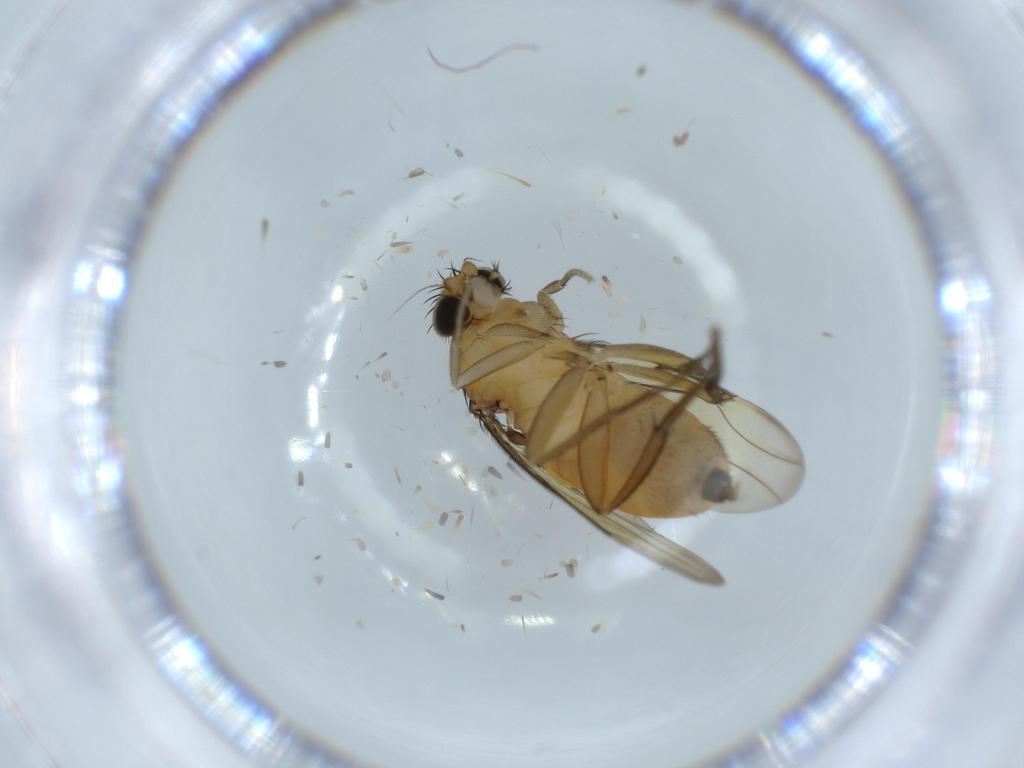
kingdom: Animalia
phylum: Arthropoda
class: Insecta
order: Diptera
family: Phoridae
